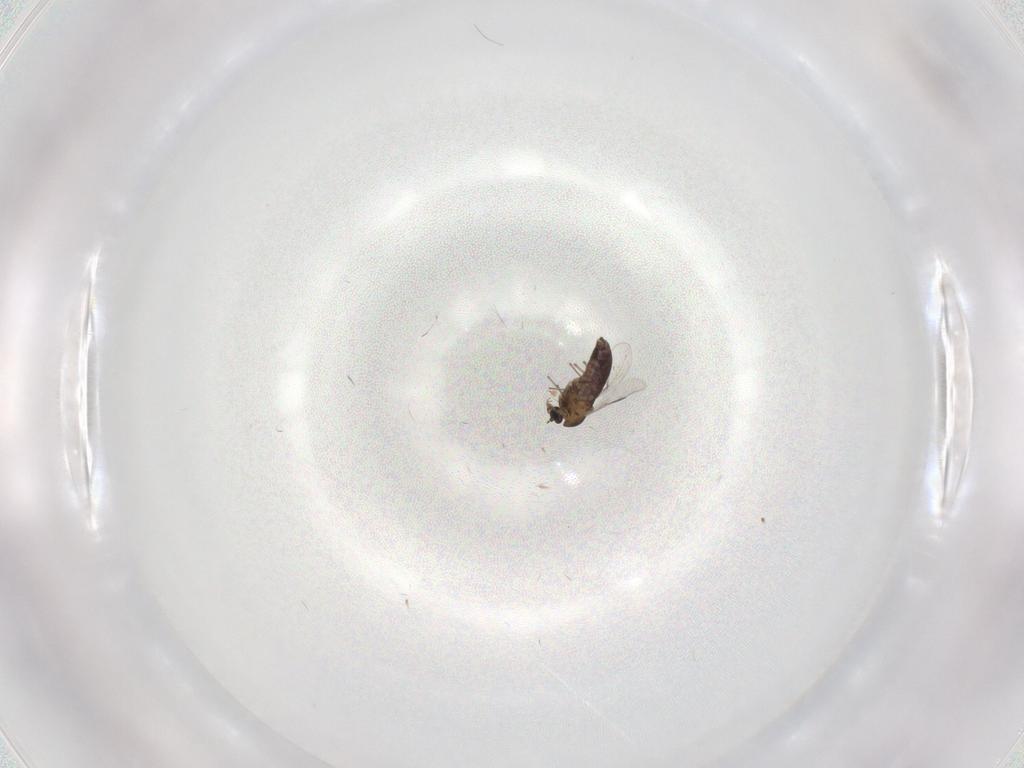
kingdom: Animalia
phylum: Arthropoda
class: Insecta
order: Diptera
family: Chironomidae
